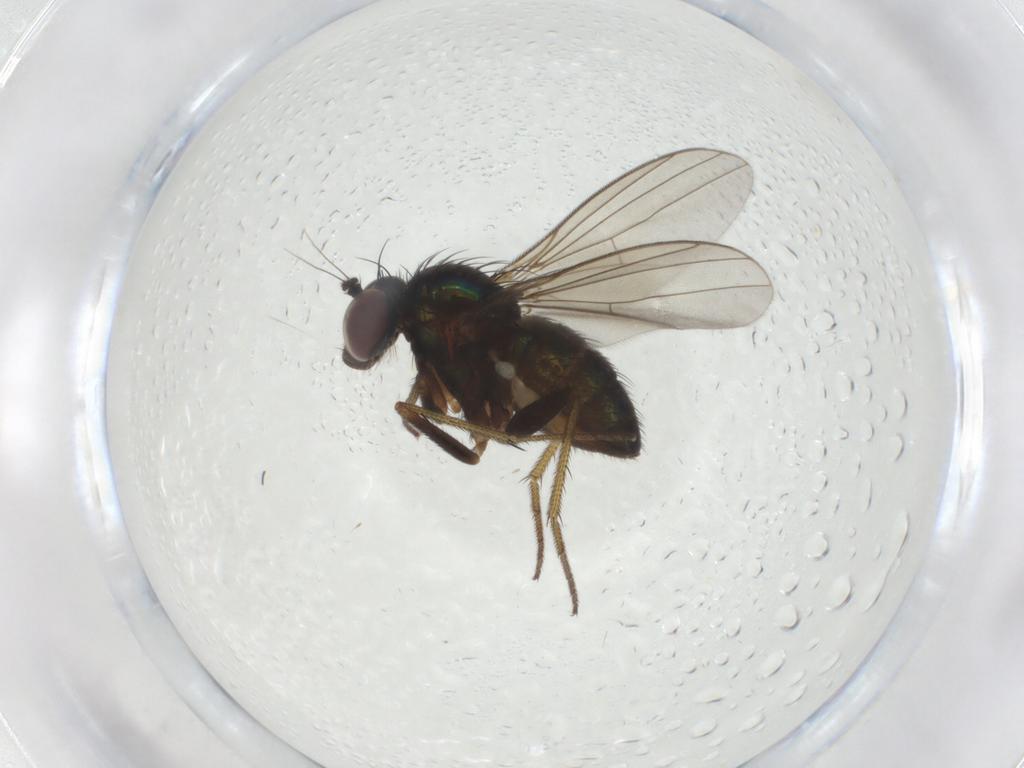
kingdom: Animalia
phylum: Arthropoda
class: Insecta
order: Diptera
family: Dolichopodidae
